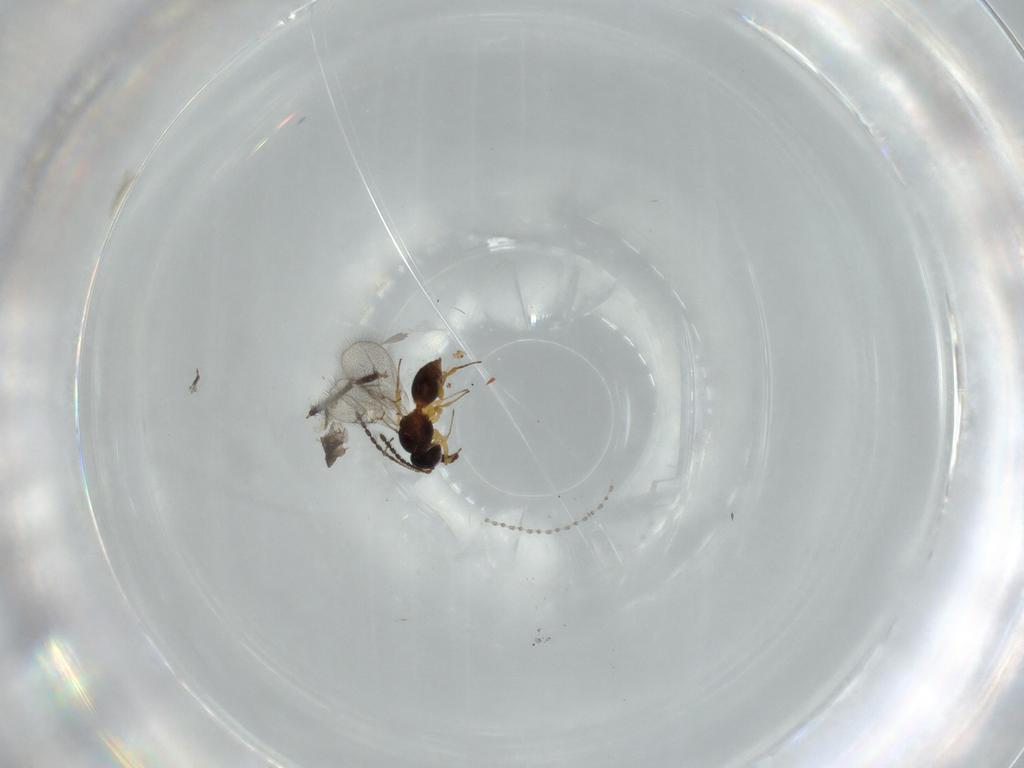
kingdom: Animalia
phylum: Arthropoda
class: Insecta
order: Hymenoptera
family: Figitidae
